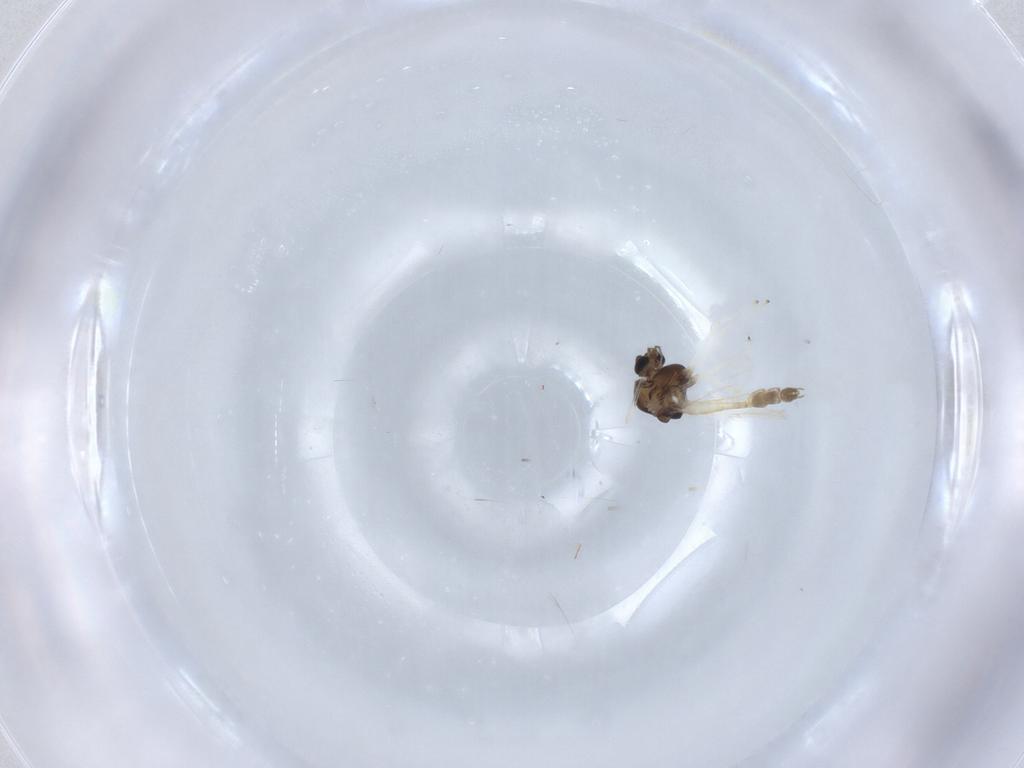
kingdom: Animalia
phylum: Arthropoda
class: Insecta
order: Diptera
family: Chironomidae
